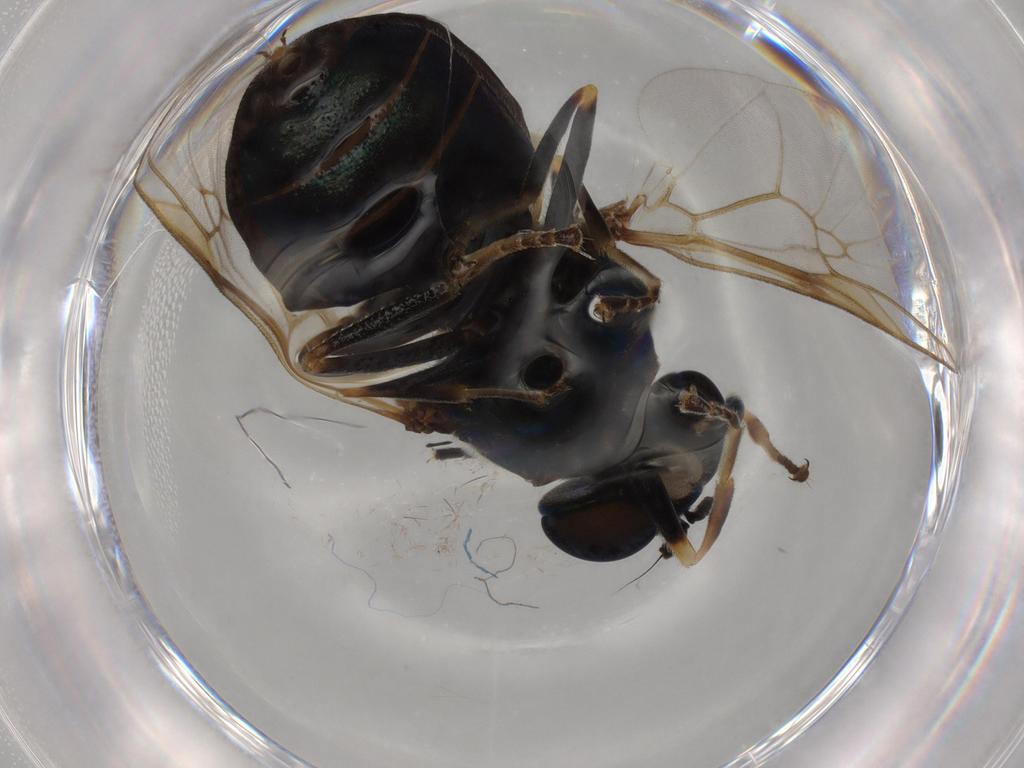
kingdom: Animalia
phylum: Arthropoda
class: Insecta
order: Diptera
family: Stratiomyidae
